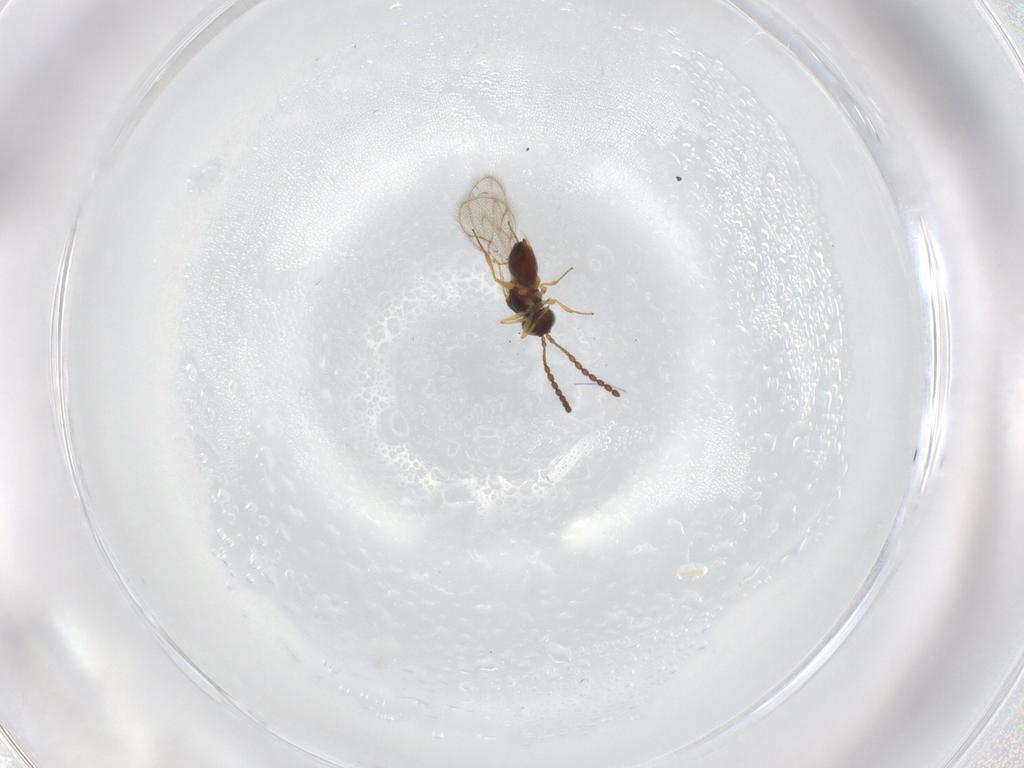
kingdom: Animalia
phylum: Arthropoda
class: Insecta
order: Hymenoptera
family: Figitidae
